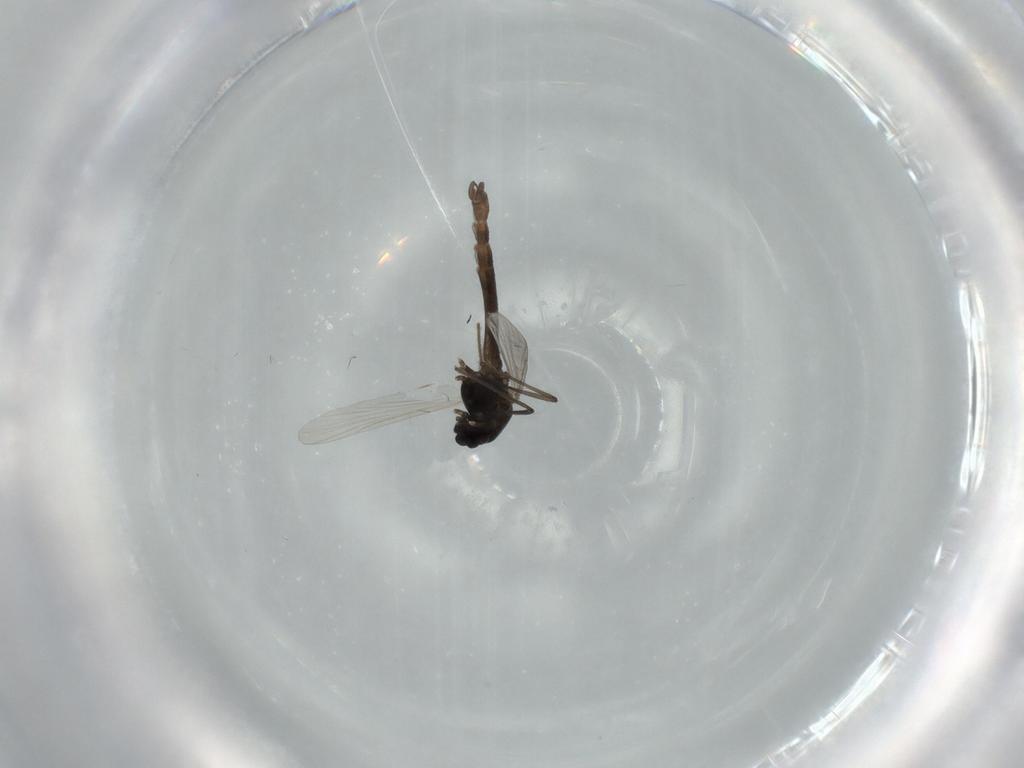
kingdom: Animalia
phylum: Arthropoda
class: Insecta
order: Diptera
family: Chironomidae
